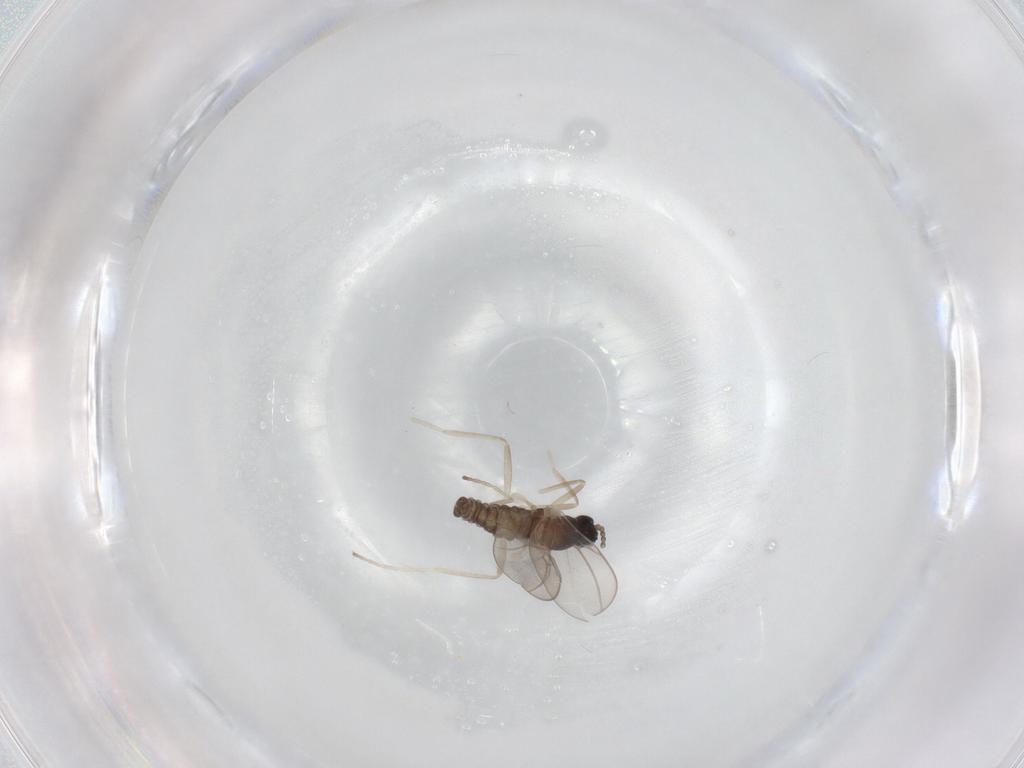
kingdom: Animalia
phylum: Arthropoda
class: Insecta
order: Diptera
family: Cecidomyiidae
